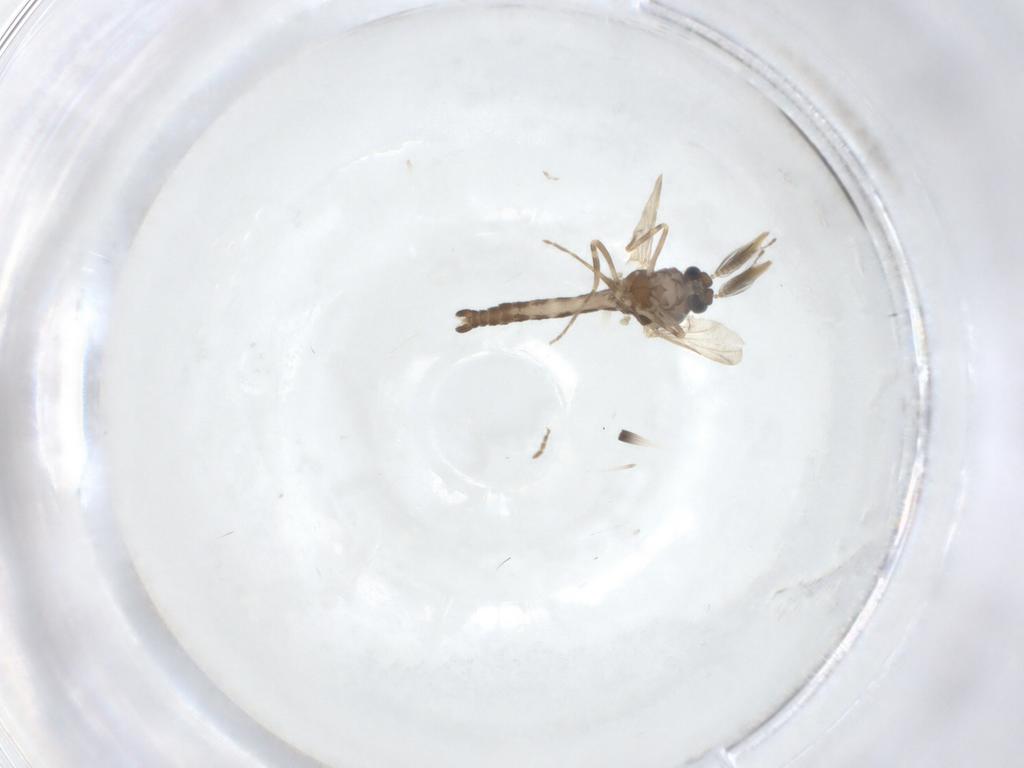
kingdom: Animalia
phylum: Arthropoda
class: Insecta
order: Diptera
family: Ceratopogonidae
